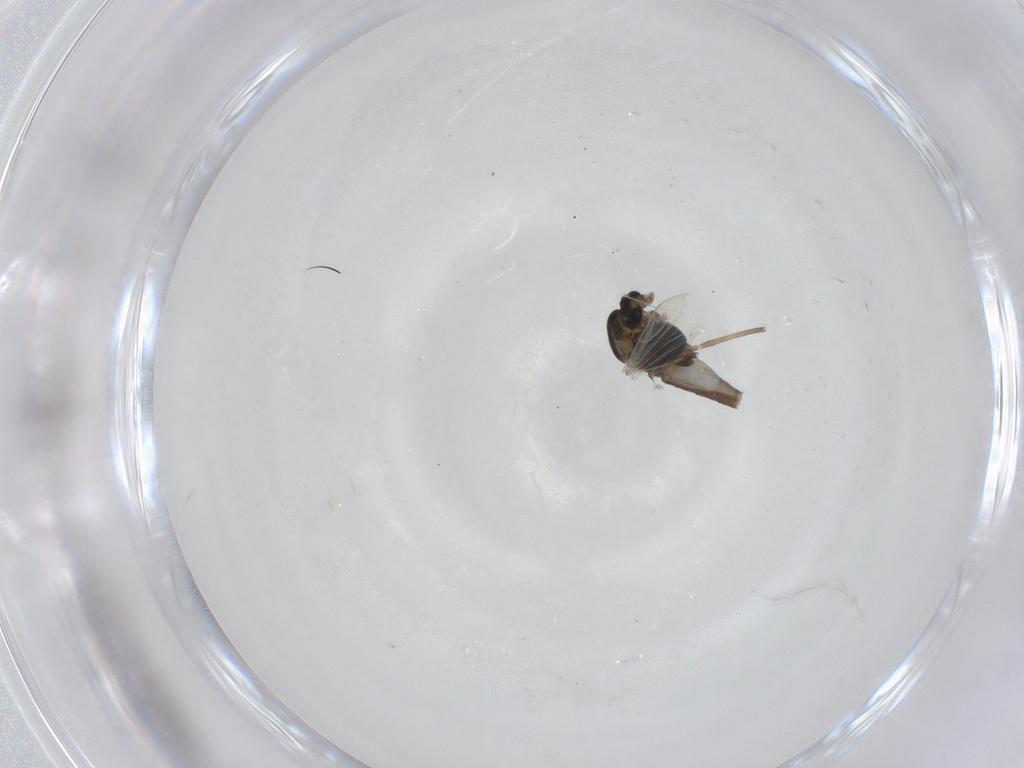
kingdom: Animalia
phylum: Arthropoda
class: Insecta
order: Diptera
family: Chironomidae
